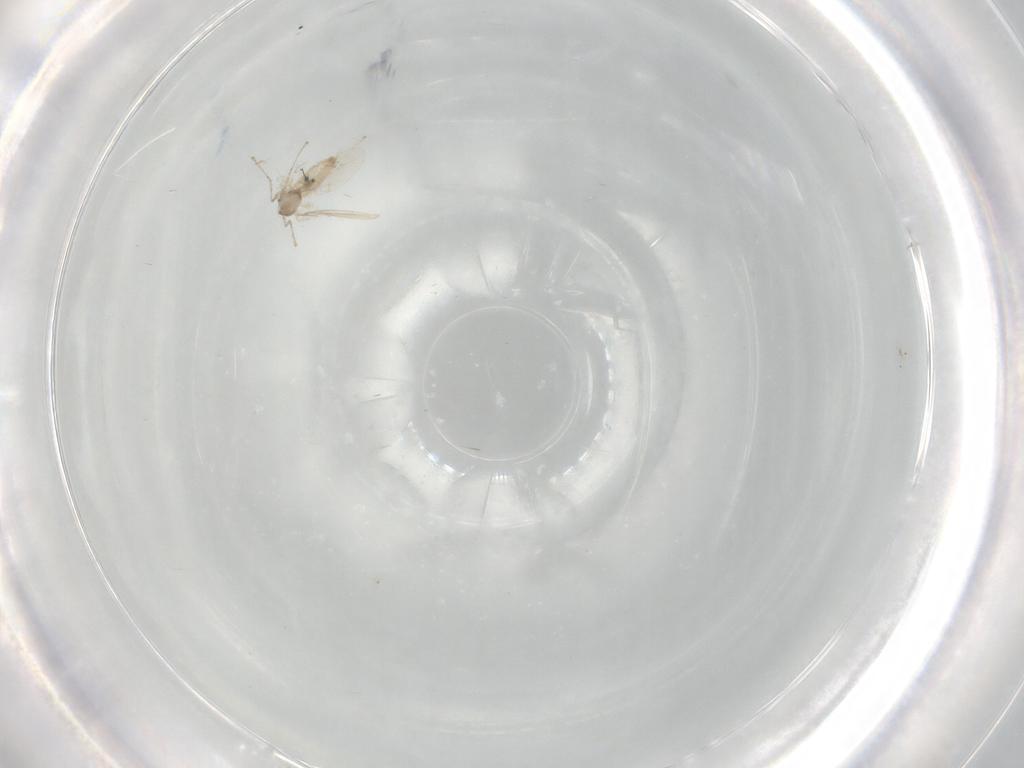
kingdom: Animalia
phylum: Arthropoda
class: Insecta
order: Diptera
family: Cecidomyiidae
